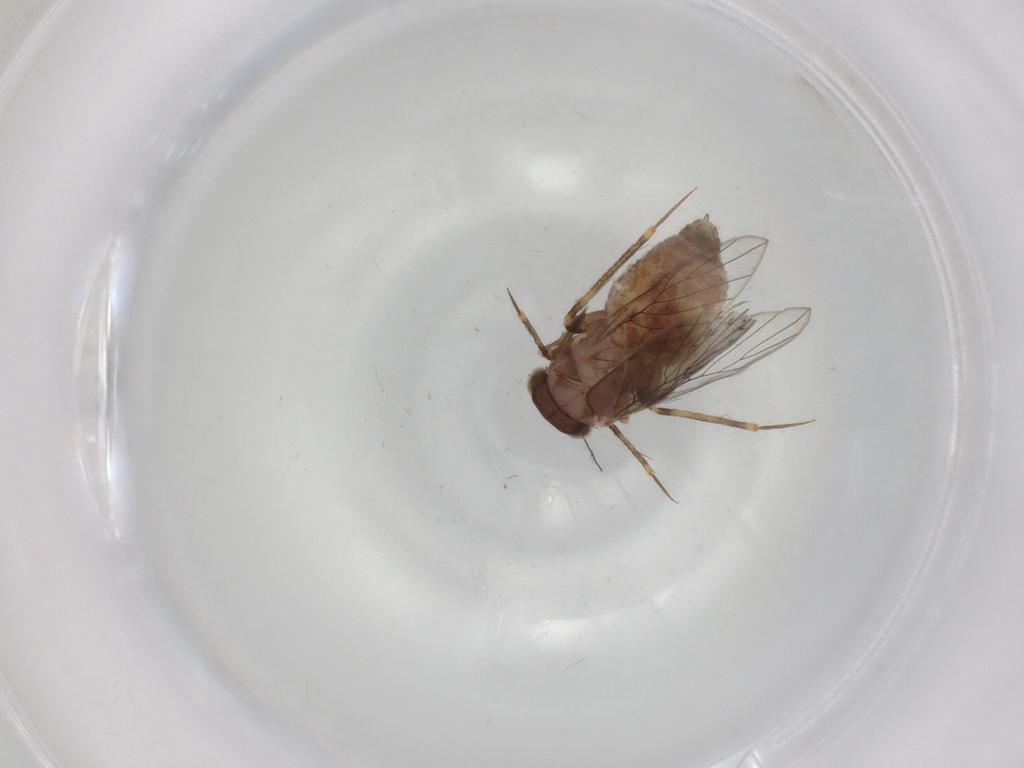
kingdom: Animalia
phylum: Arthropoda
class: Insecta
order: Psocodea
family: Lepidopsocidae
